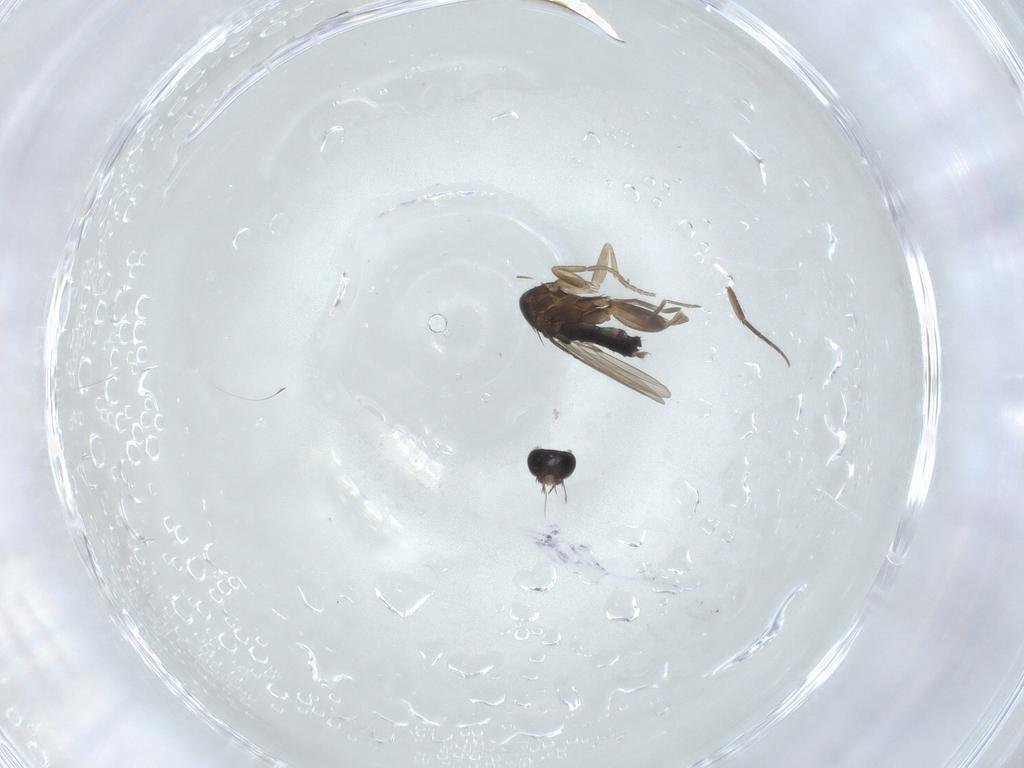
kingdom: Animalia
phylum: Arthropoda
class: Insecta
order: Diptera
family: Phoridae
